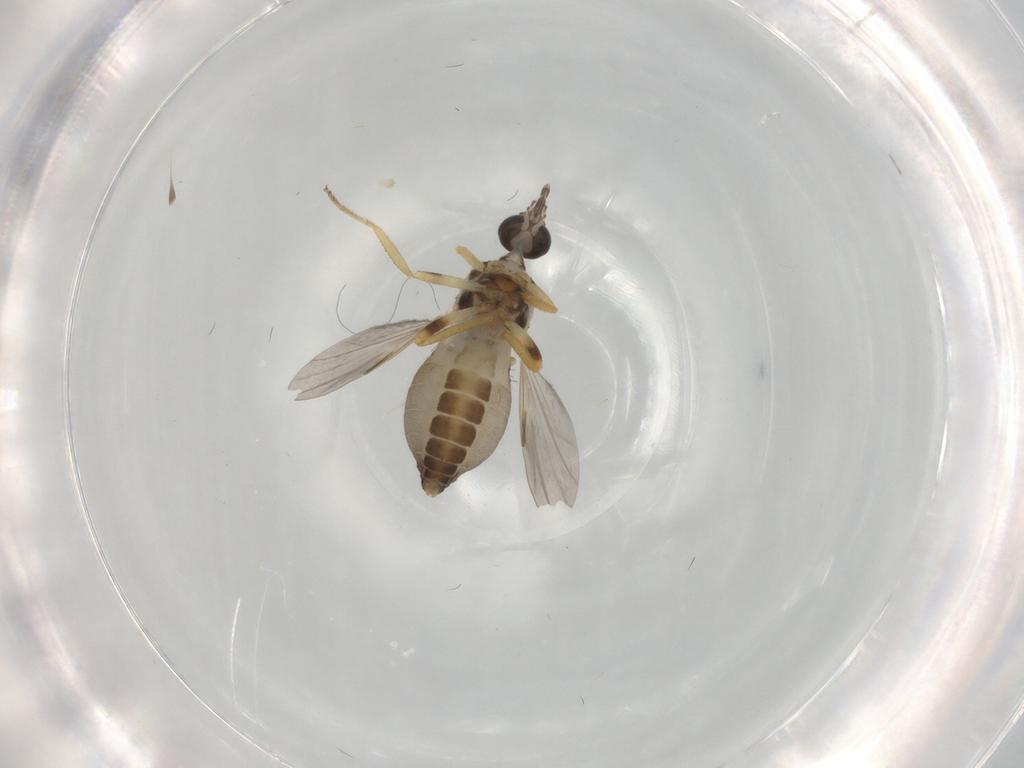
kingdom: Animalia
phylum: Arthropoda
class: Insecta
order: Diptera
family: Ceratopogonidae
